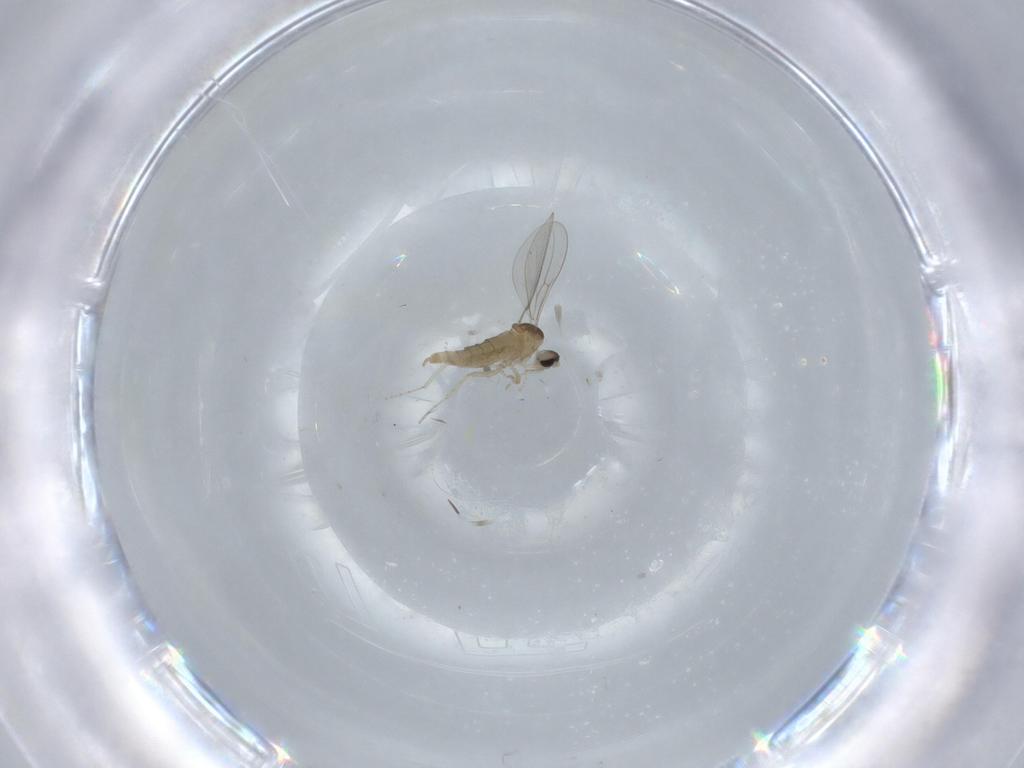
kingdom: Animalia
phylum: Arthropoda
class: Insecta
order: Diptera
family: Cecidomyiidae
